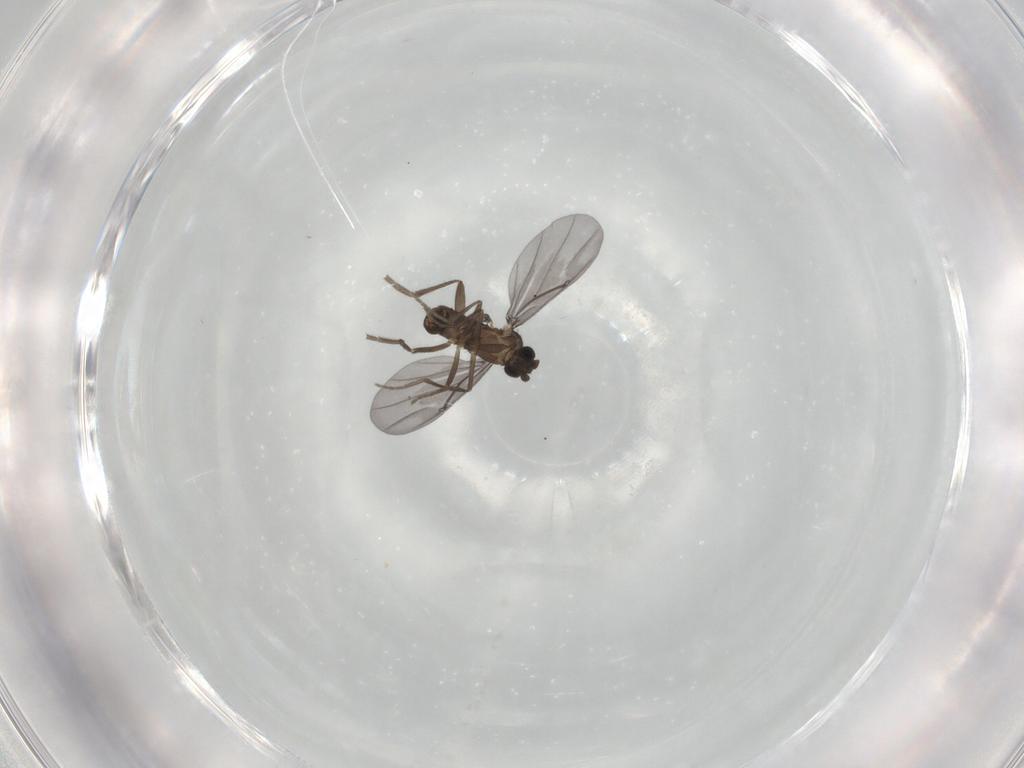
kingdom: Animalia
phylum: Arthropoda
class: Insecta
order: Diptera
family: Phoridae
